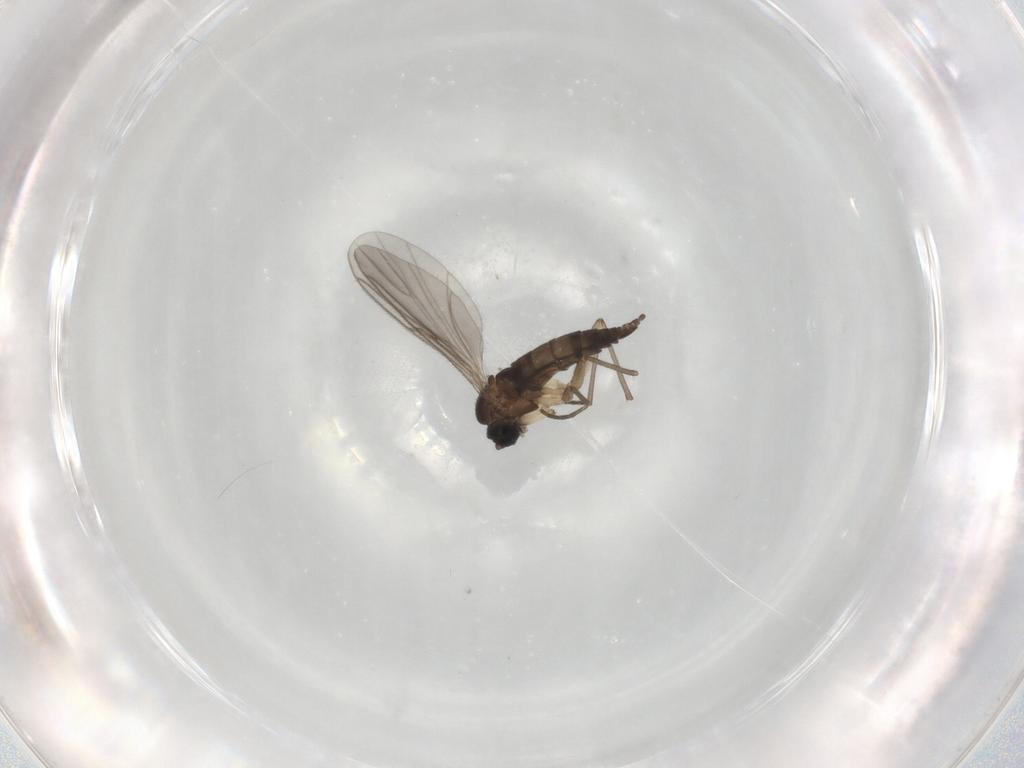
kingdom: Animalia
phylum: Arthropoda
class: Insecta
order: Diptera
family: Sciaridae
